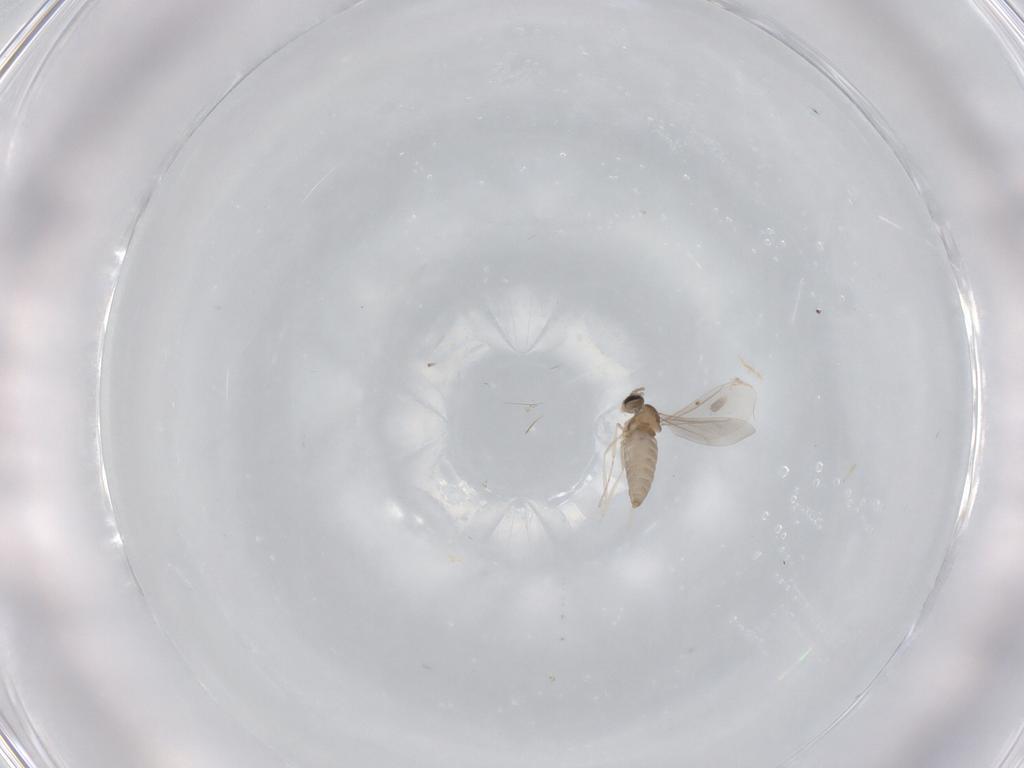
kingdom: Animalia
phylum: Arthropoda
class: Insecta
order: Diptera
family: Cecidomyiidae
